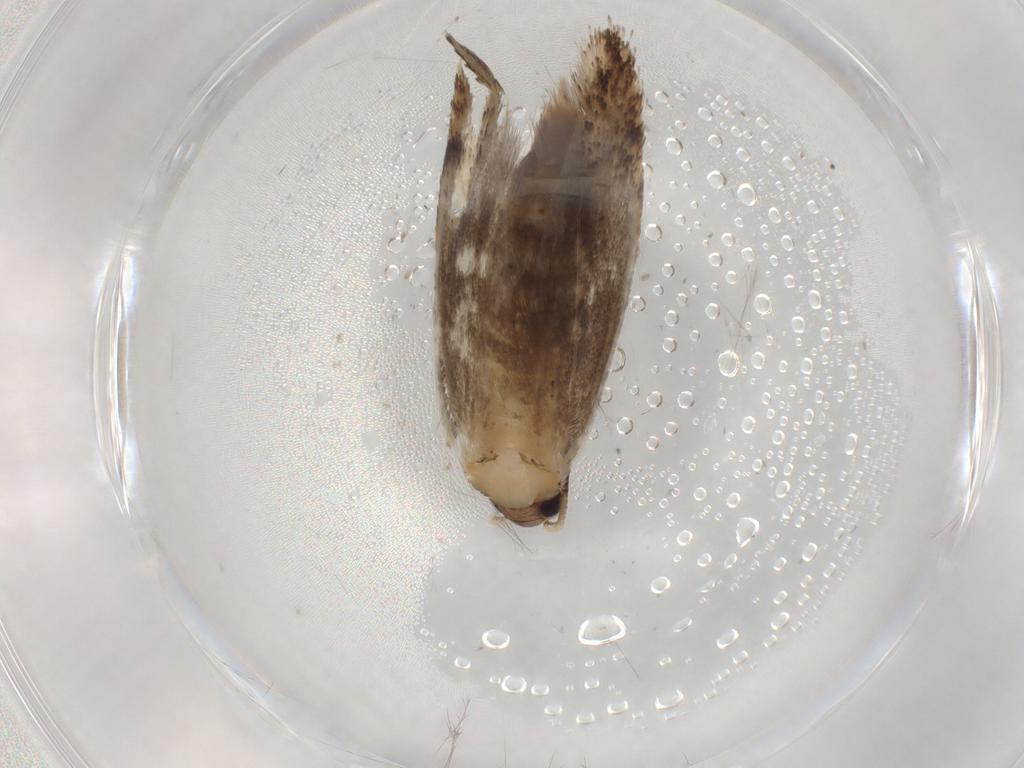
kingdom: Animalia
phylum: Arthropoda
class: Insecta
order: Lepidoptera
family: Tineidae
